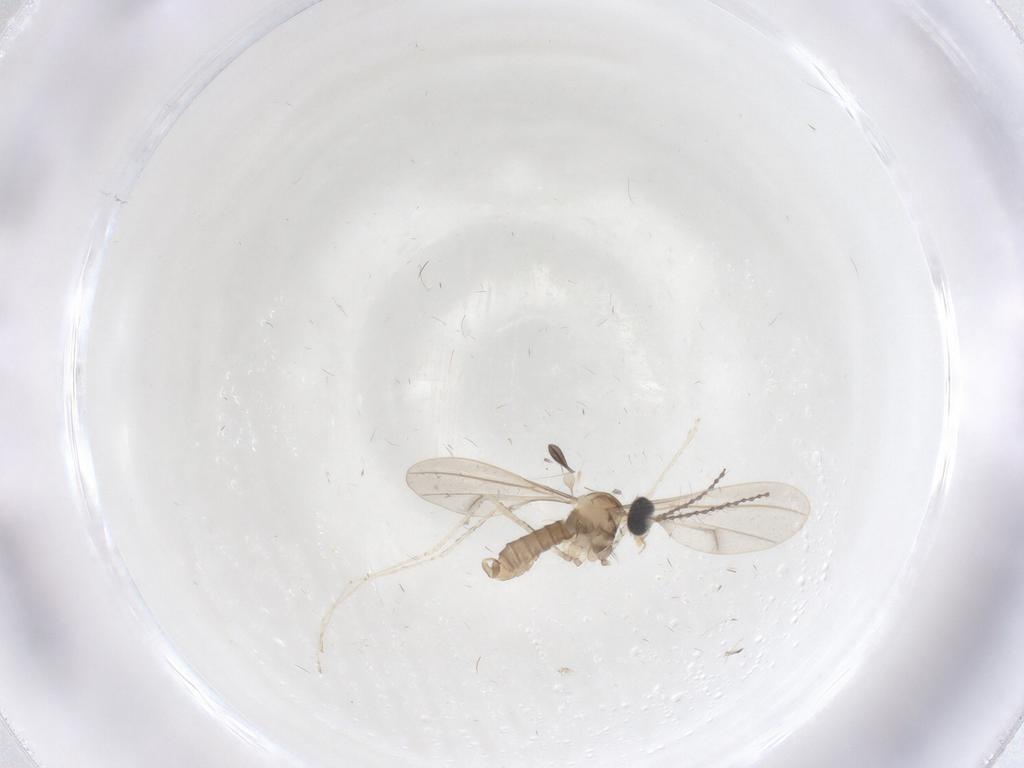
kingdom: Animalia
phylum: Arthropoda
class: Insecta
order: Diptera
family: Cecidomyiidae
